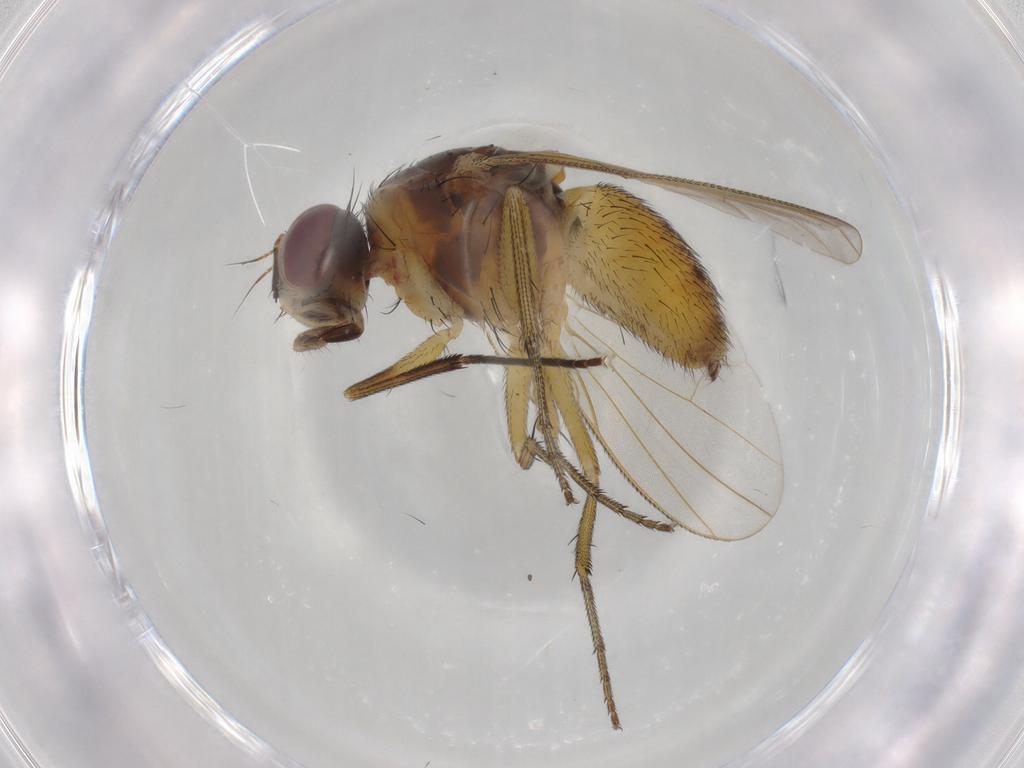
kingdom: Animalia
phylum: Arthropoda
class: Insecta
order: Diptera
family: Muscidae
